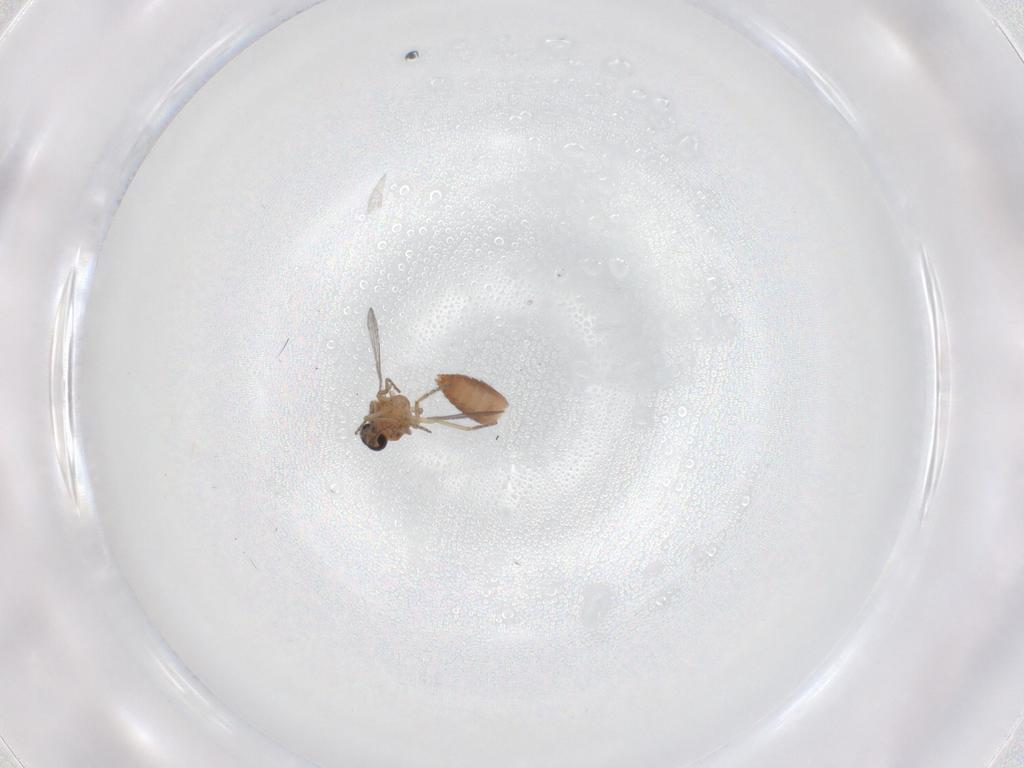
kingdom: Animalia
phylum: Arthropoda
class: Insecta
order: Diptera
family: Ceratopogonidae
